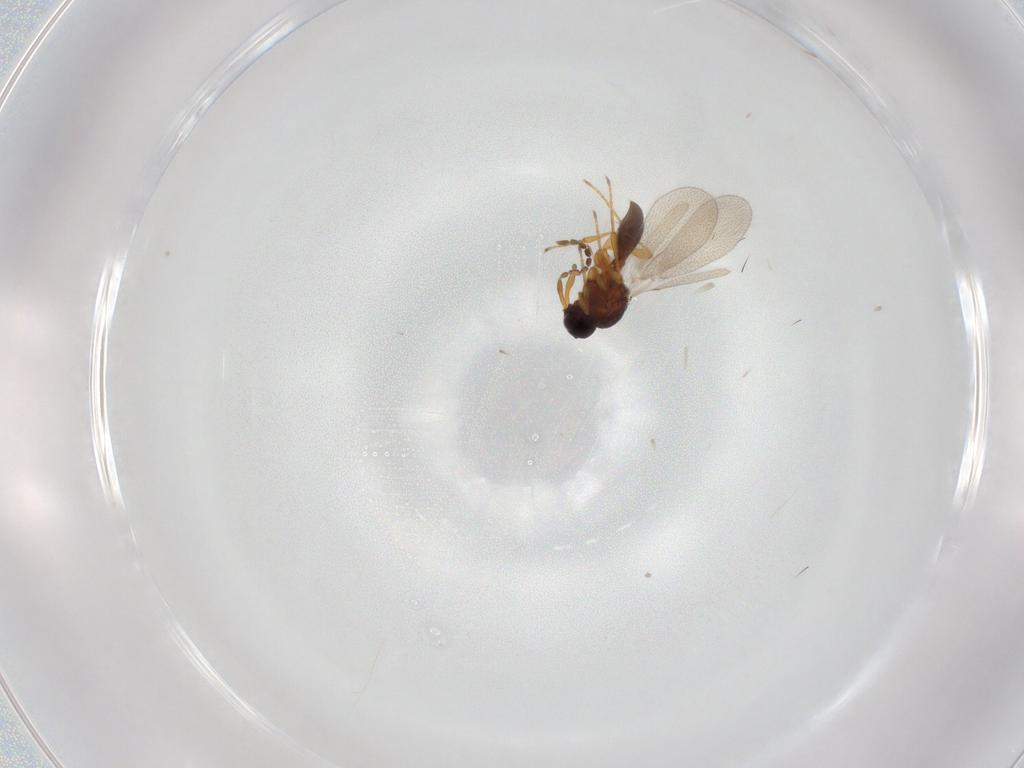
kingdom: Animalia
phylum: Arthropoda
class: Insecta
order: Diptera
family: Mythicomyiidae
